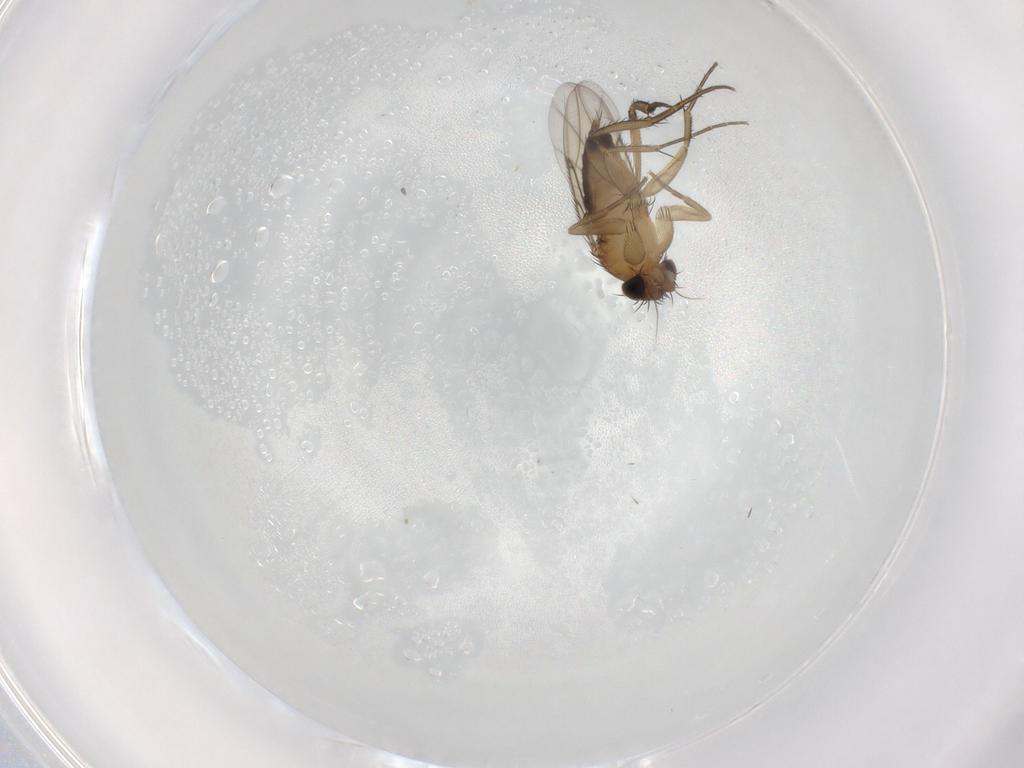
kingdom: Animalia
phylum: Arthropoda
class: Insecta
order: Diptera
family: Phoridae
